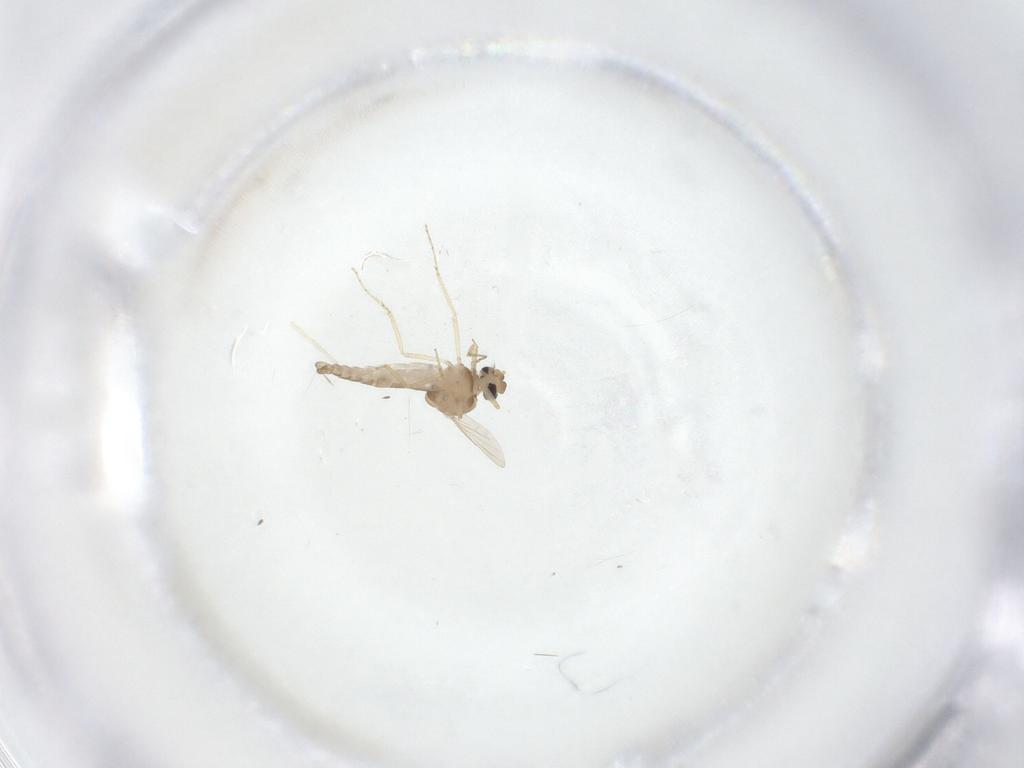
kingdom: Animalia
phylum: Arthropoda
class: Insecta
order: Diptera
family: Ceratopogonidae
